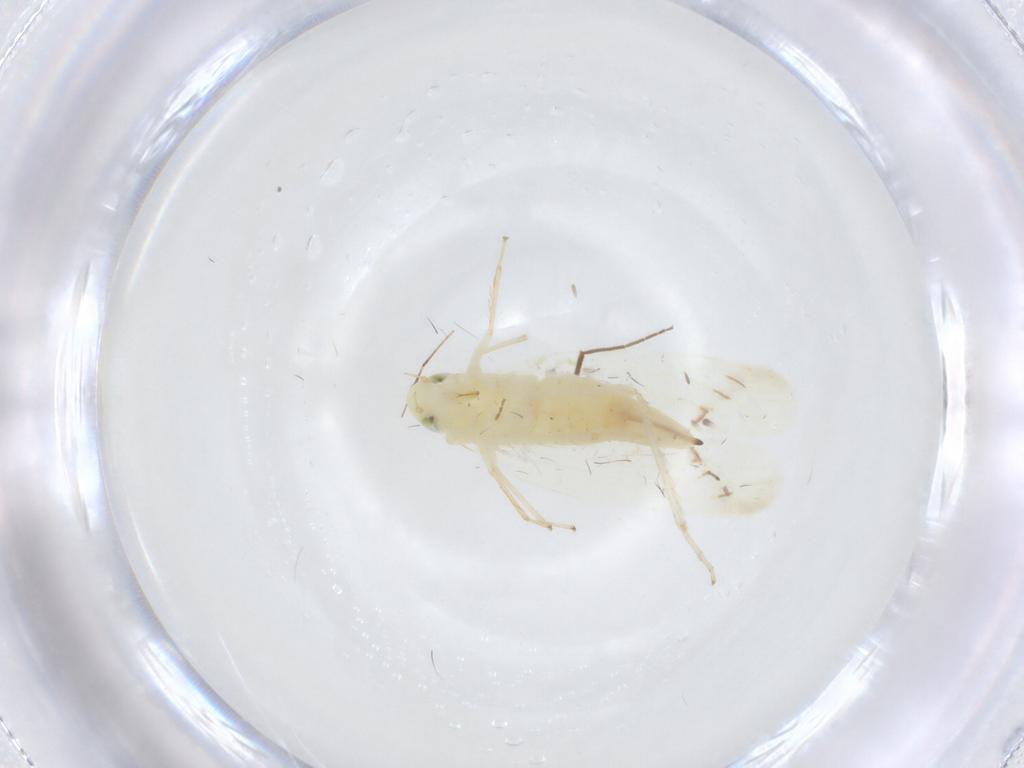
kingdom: Animalia
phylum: Arthropoda
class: Insecta
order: Hemiptera
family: Cicadellidae
